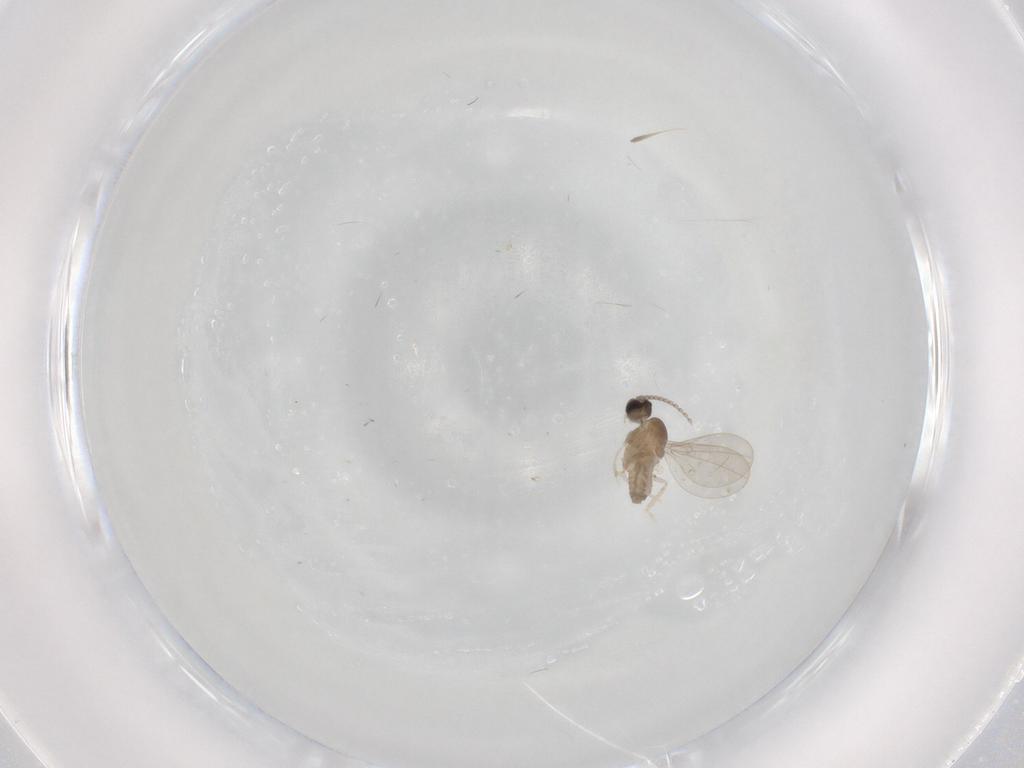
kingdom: Animalia
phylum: Arthropoda
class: Insecta
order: Diptera
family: Cecidomyiidae
